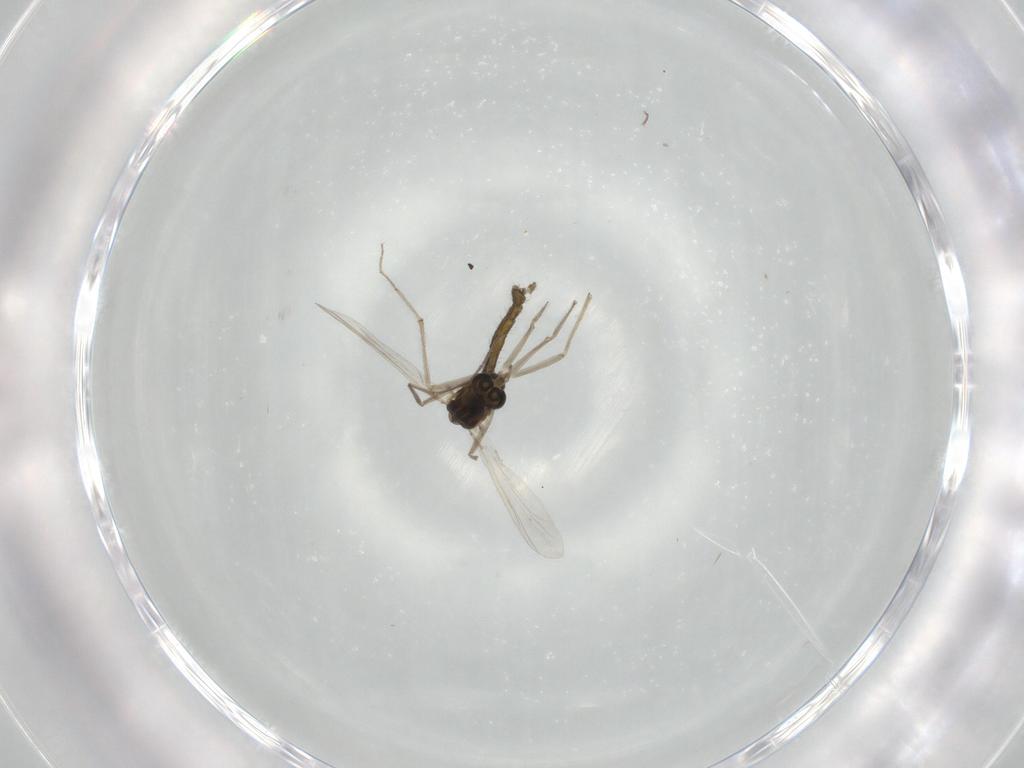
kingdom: Animalia
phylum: Arthropoda
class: Insecta
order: Diptera
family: Chironomidae
